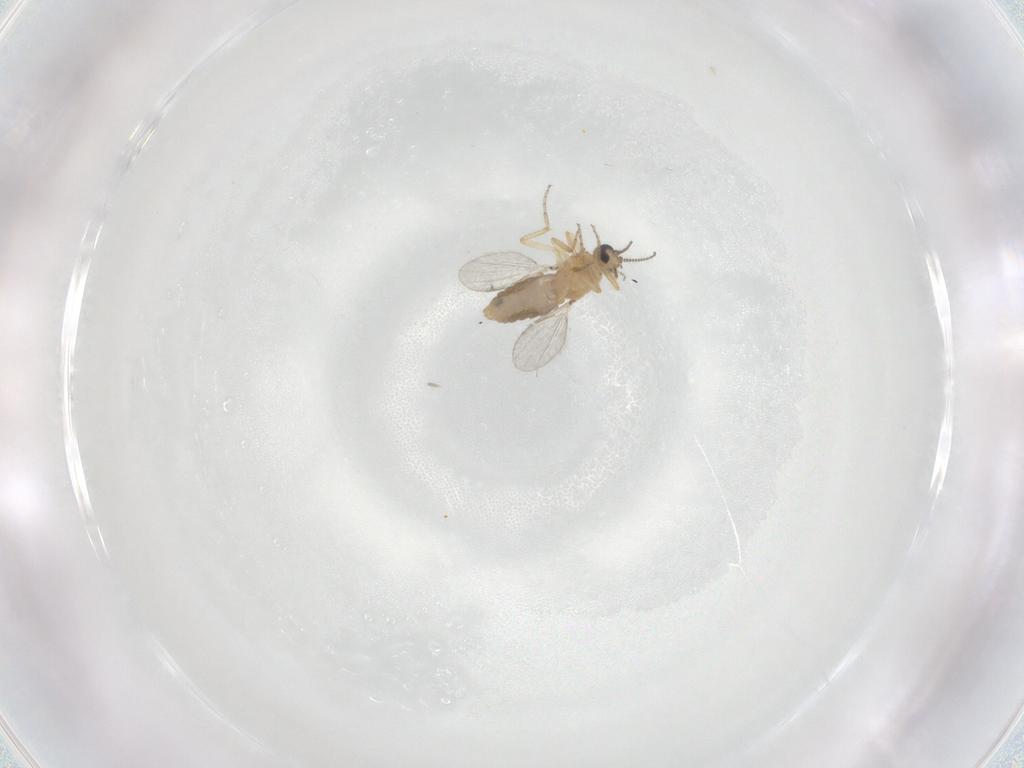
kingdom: Animalia
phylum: Arthropoda
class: Insecta
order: Diptera
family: Ceratopogonidae
